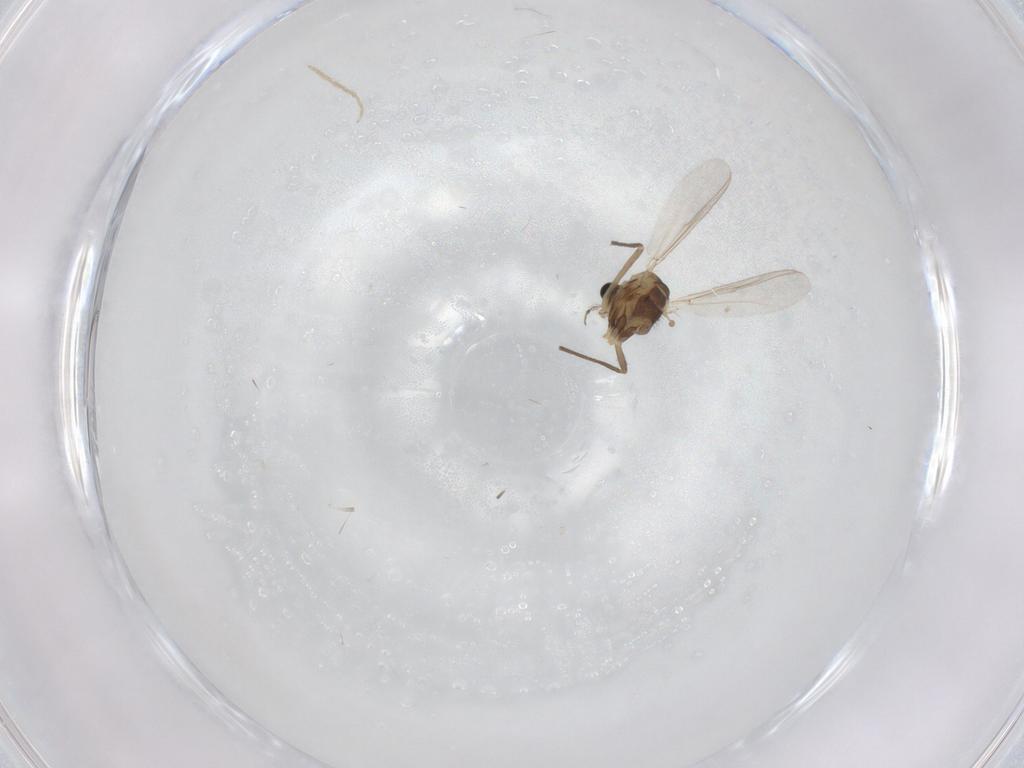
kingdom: Animalia
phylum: Arthropoda
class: Insecta
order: Diptera
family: Chironomidae
